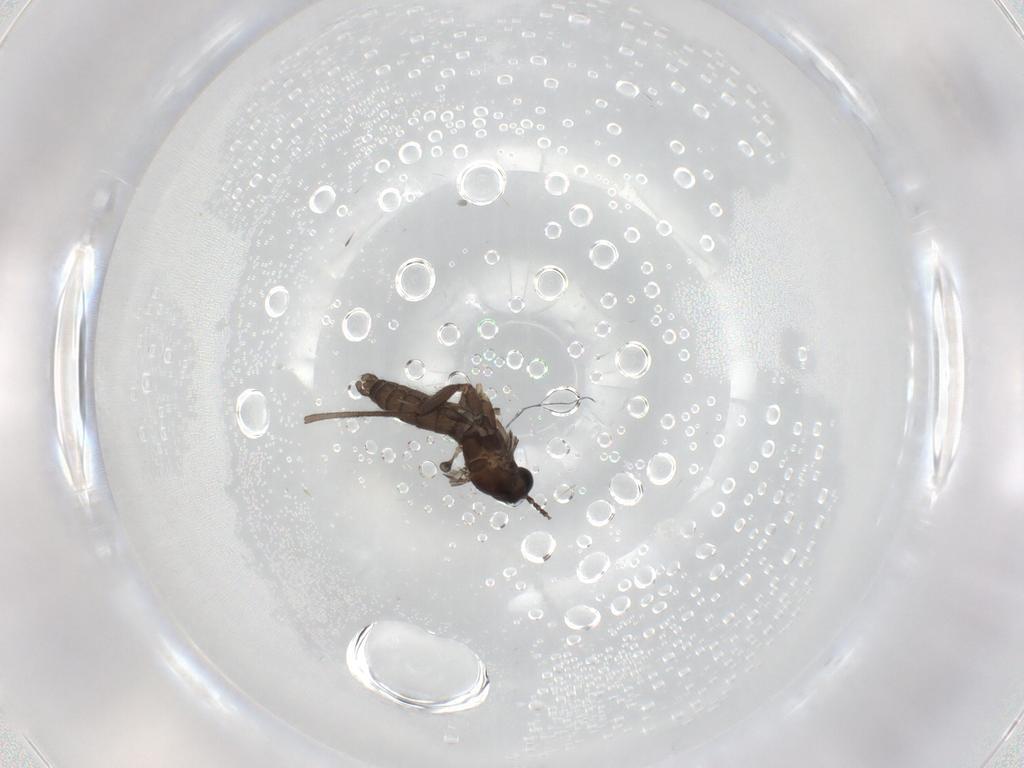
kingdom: Animalia
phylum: Arthropoda
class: Insecta
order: Diptera
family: Sciaridae
